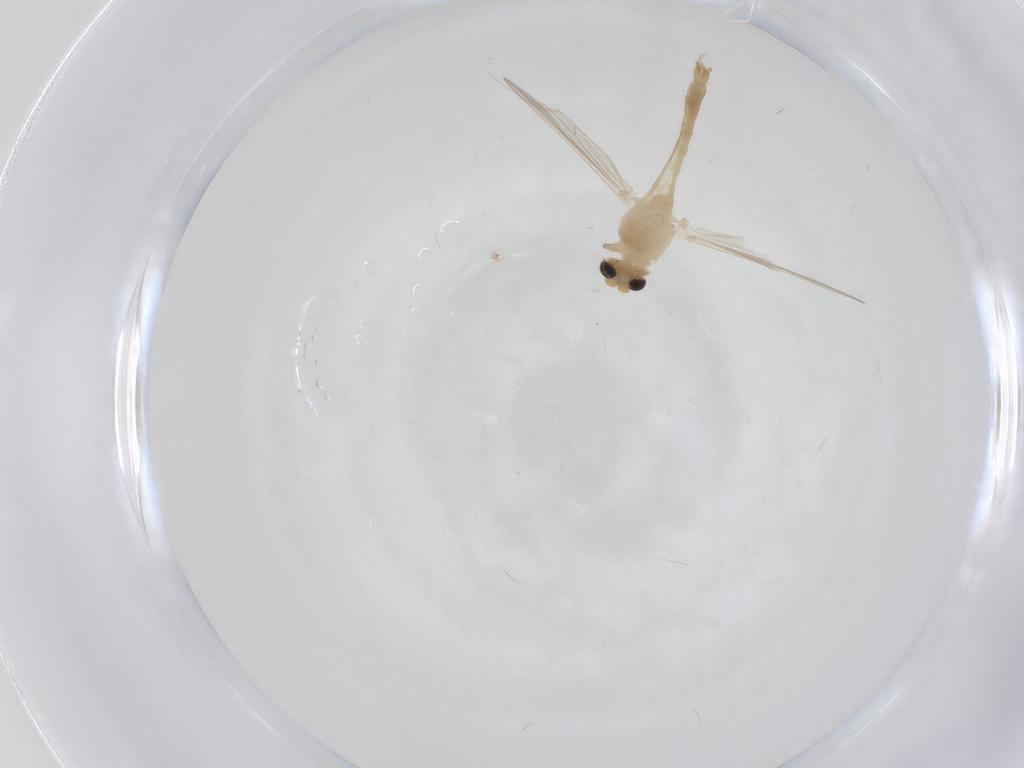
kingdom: Animalia
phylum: Arthropoda
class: Insecta
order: Diptera
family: Chironomidae
